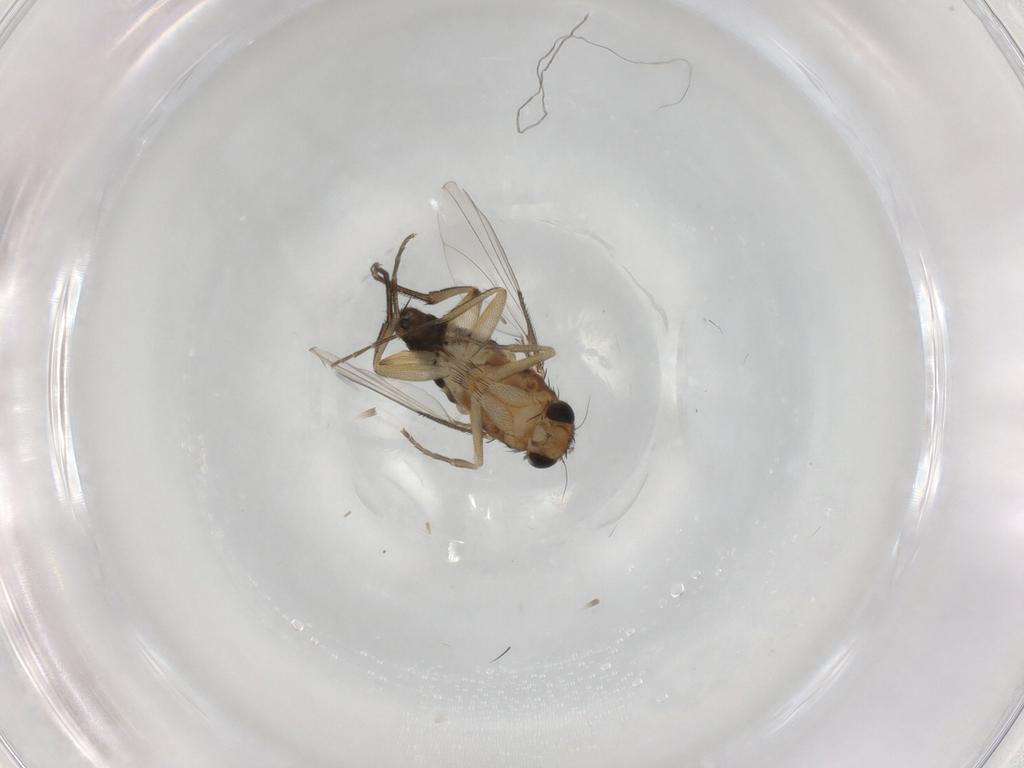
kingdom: Animalia
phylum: Arthropoda
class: Insecta
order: Diptera
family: Phoridae
